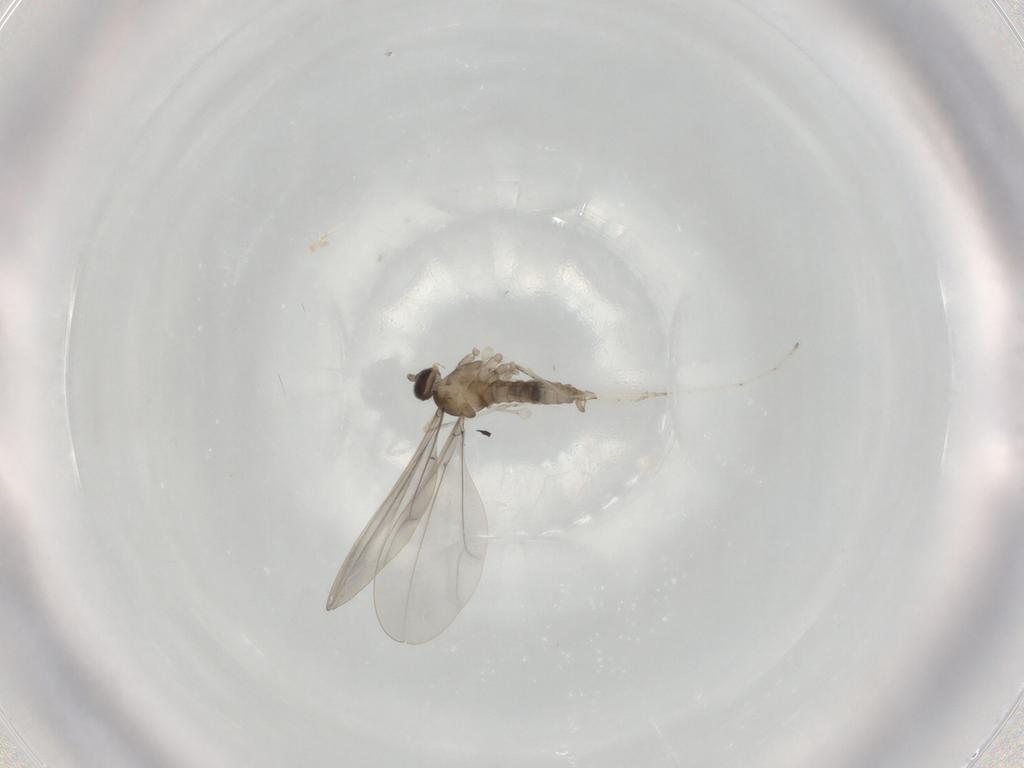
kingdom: Animalia
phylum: Arthropoda
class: Insecta
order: Diptera
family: Cecidomyiidae
